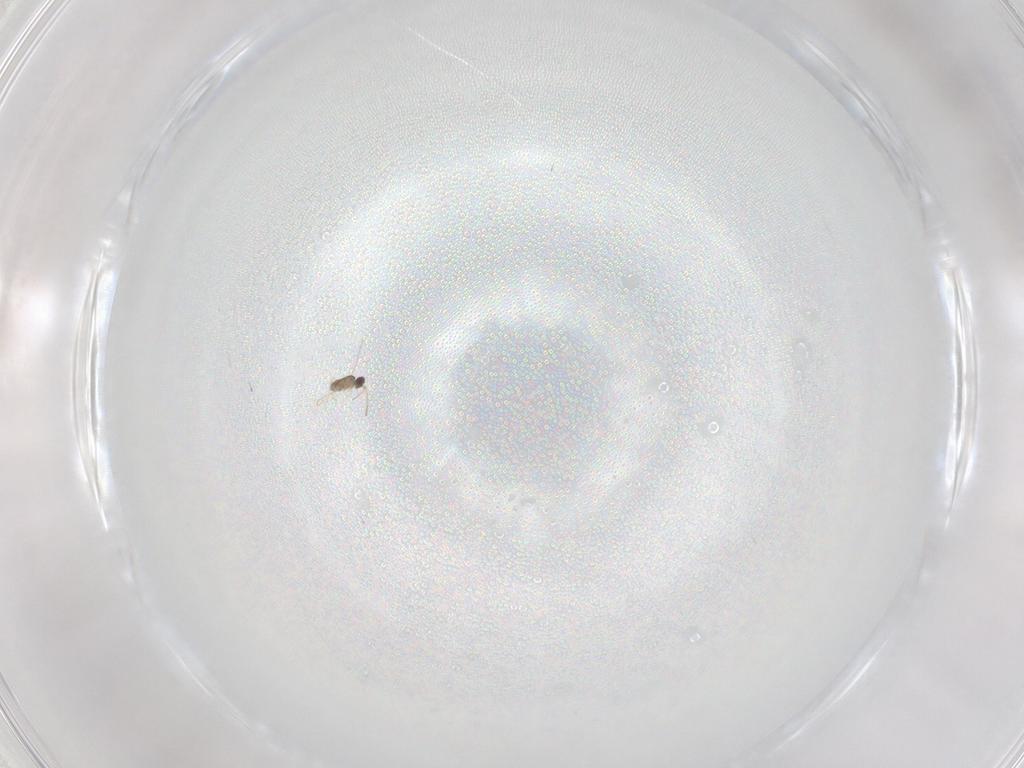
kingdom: Animalia
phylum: Arthropoda
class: Insecta
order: Hymenoptera
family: Scelionidae
